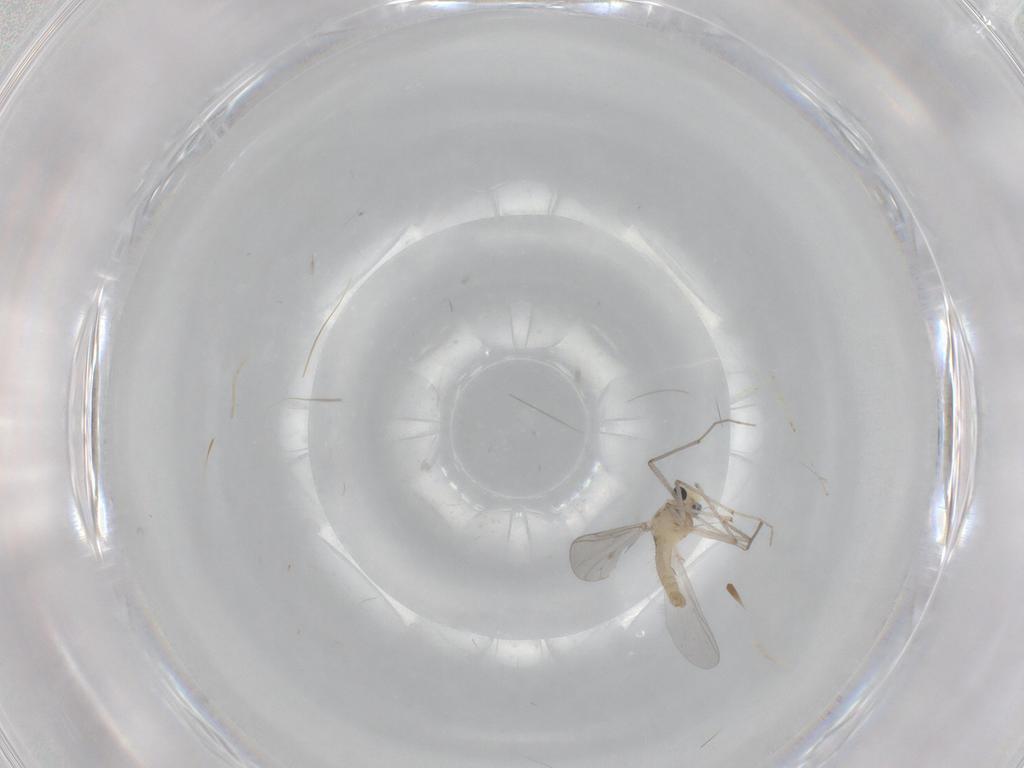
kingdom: Animalia
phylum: Arthropoda
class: Insecta
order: Diptera
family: Chironomidae
